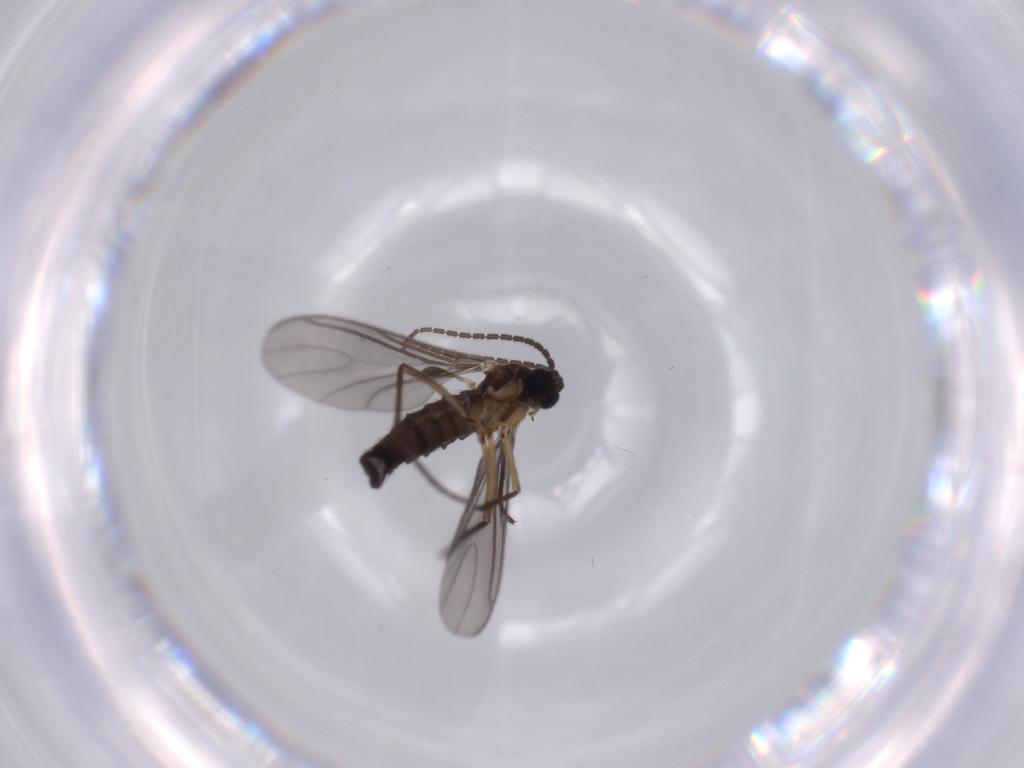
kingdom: Animalia
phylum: Arthropoda
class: Insecta
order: Diptera
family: Sciaridae
